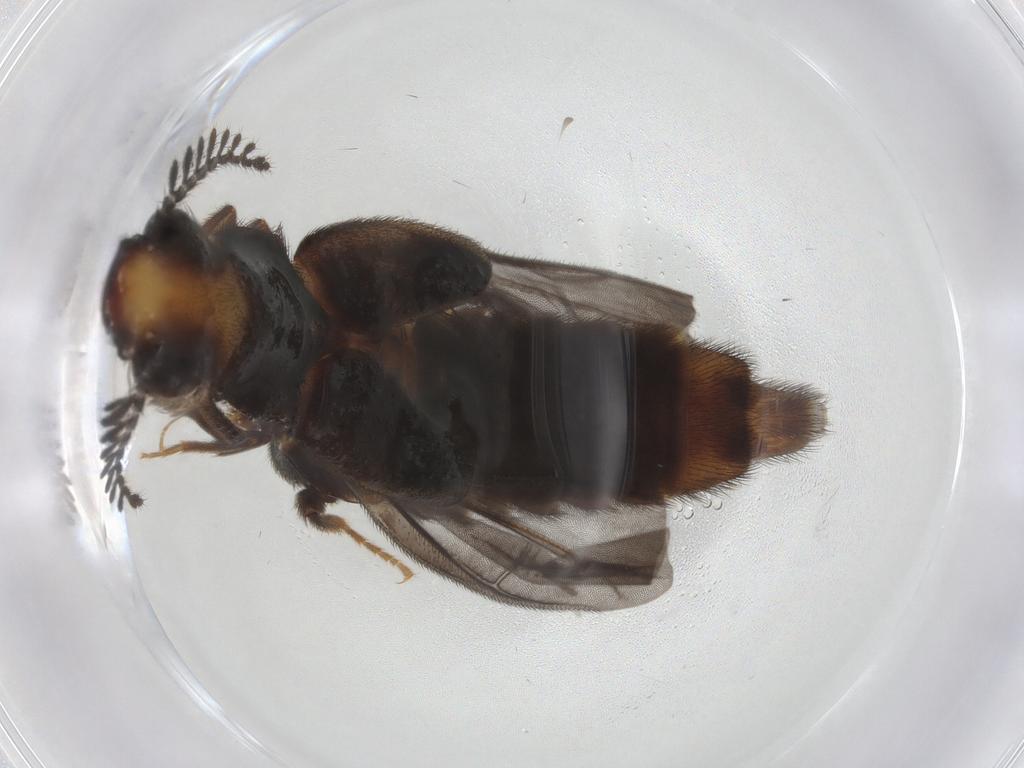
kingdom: Animalia
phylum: Arthropoda
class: Insecta
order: Coleoptera
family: Phengodidae
